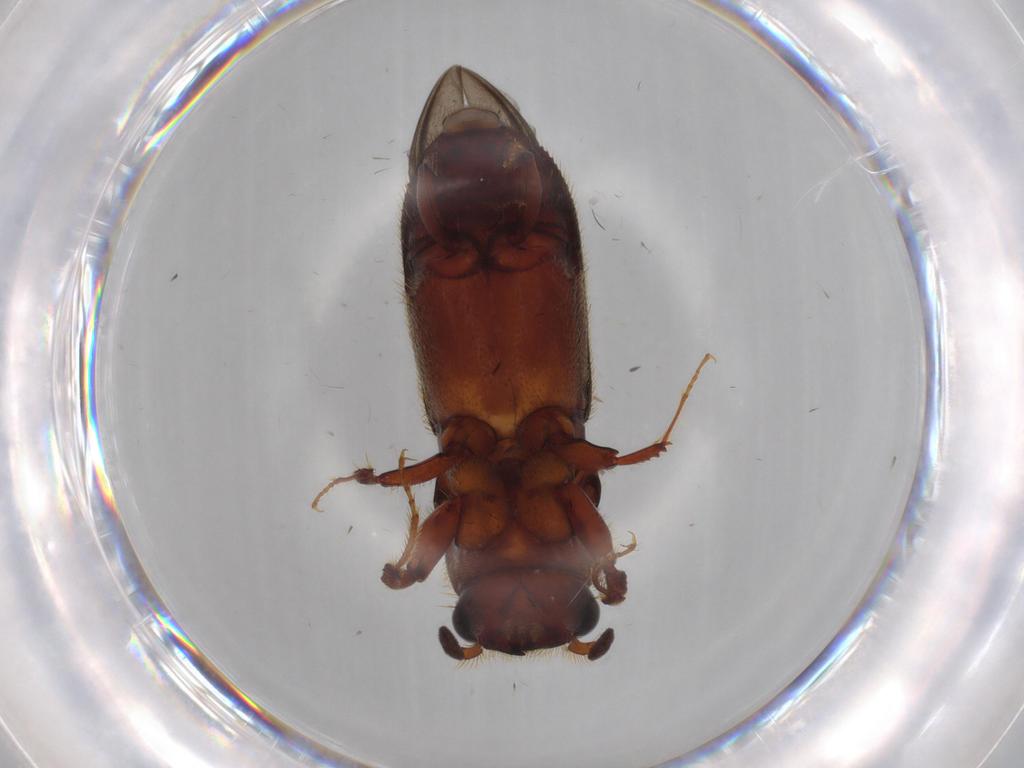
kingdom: Animalia
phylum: Arthropoda
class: Insecta
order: Coleoptera
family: Curculionidae
